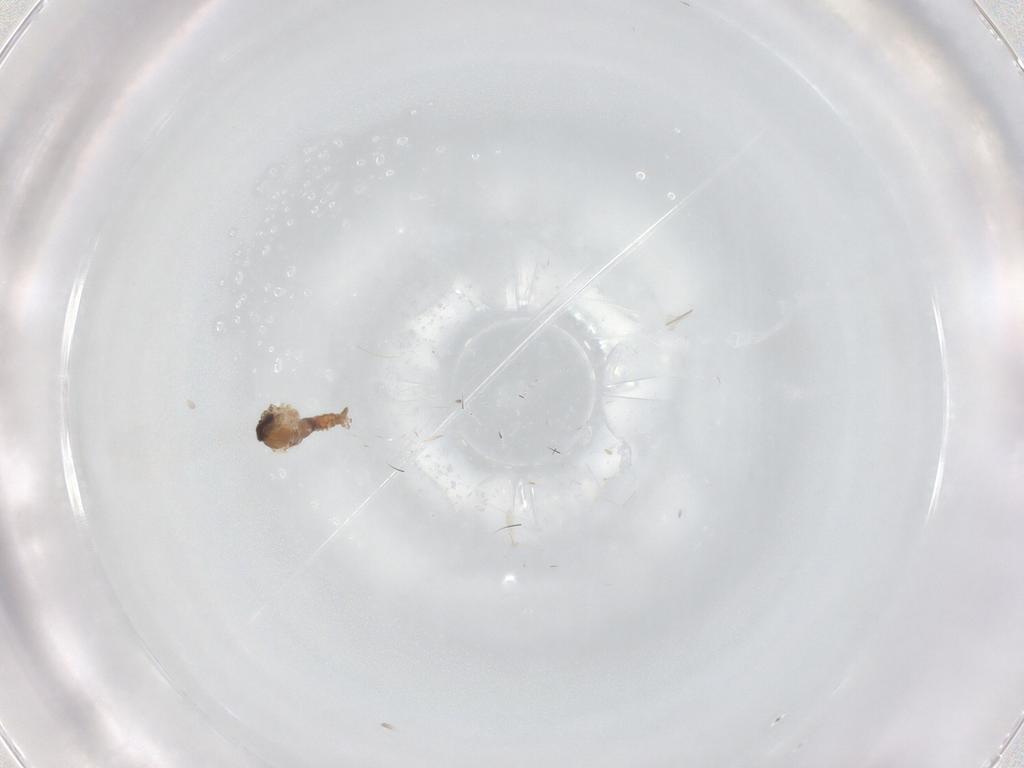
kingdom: Animalia
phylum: Arthropoda
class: Insecta
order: Diptera
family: Psychodidae
